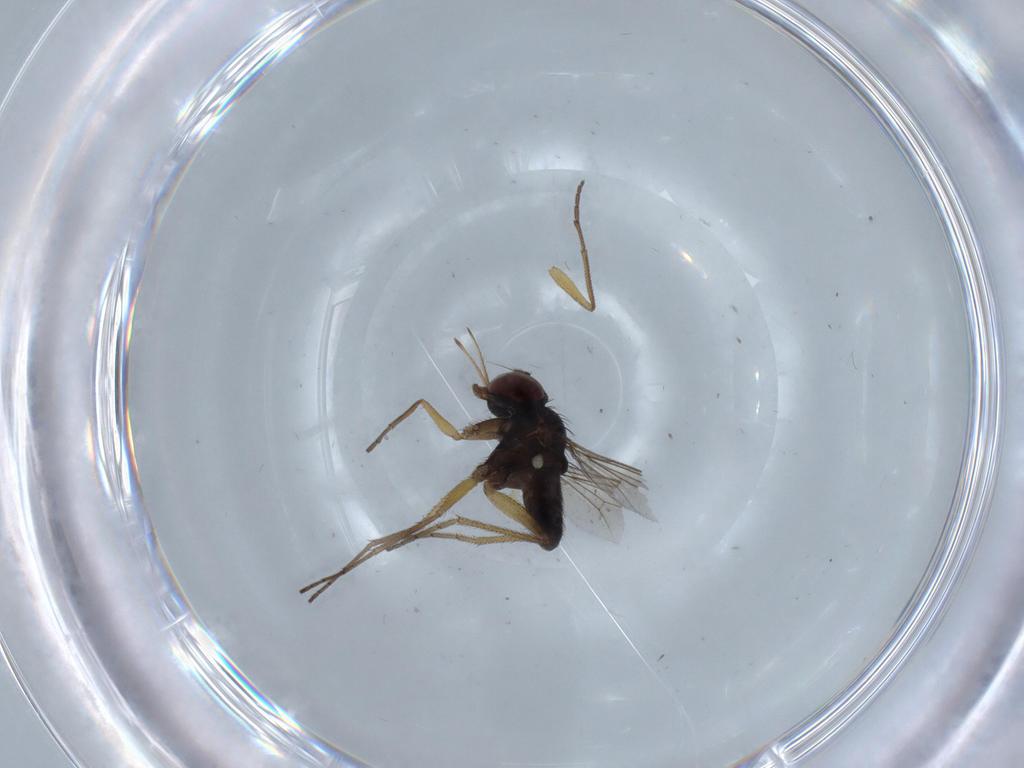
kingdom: Animalia
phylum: Arthropoda
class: Insecta
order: Diptera
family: Dolichopodidae
